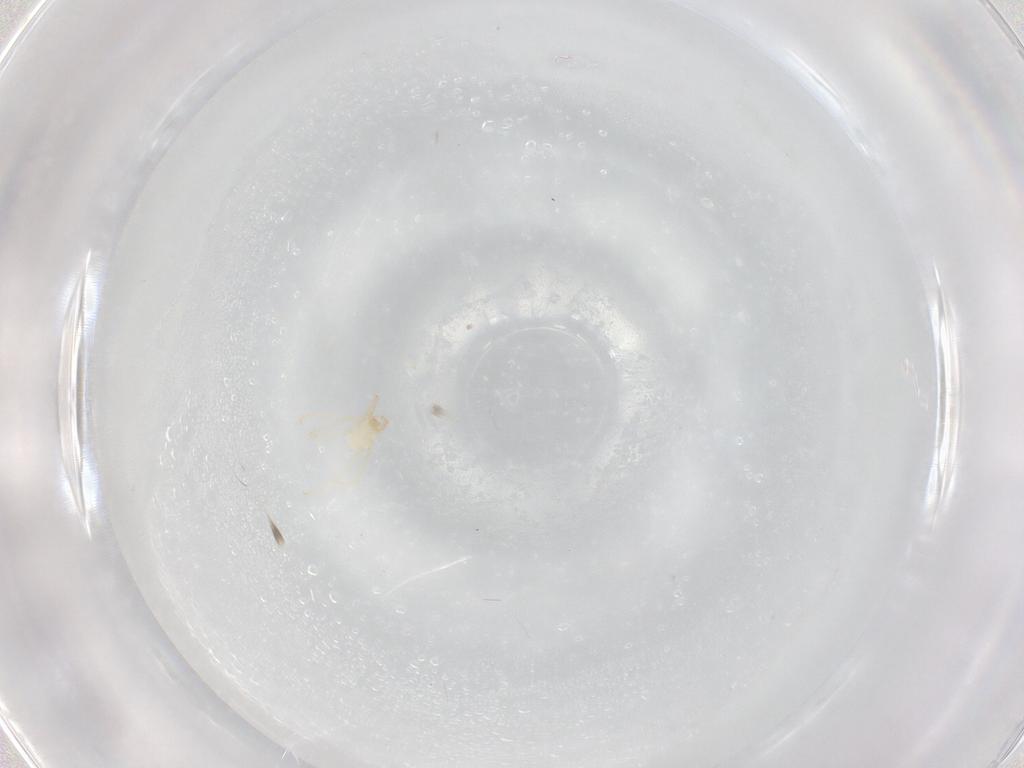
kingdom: Animalia
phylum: Arthropoda
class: Arachnida
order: Trombidiformes
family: Erythraeidae
